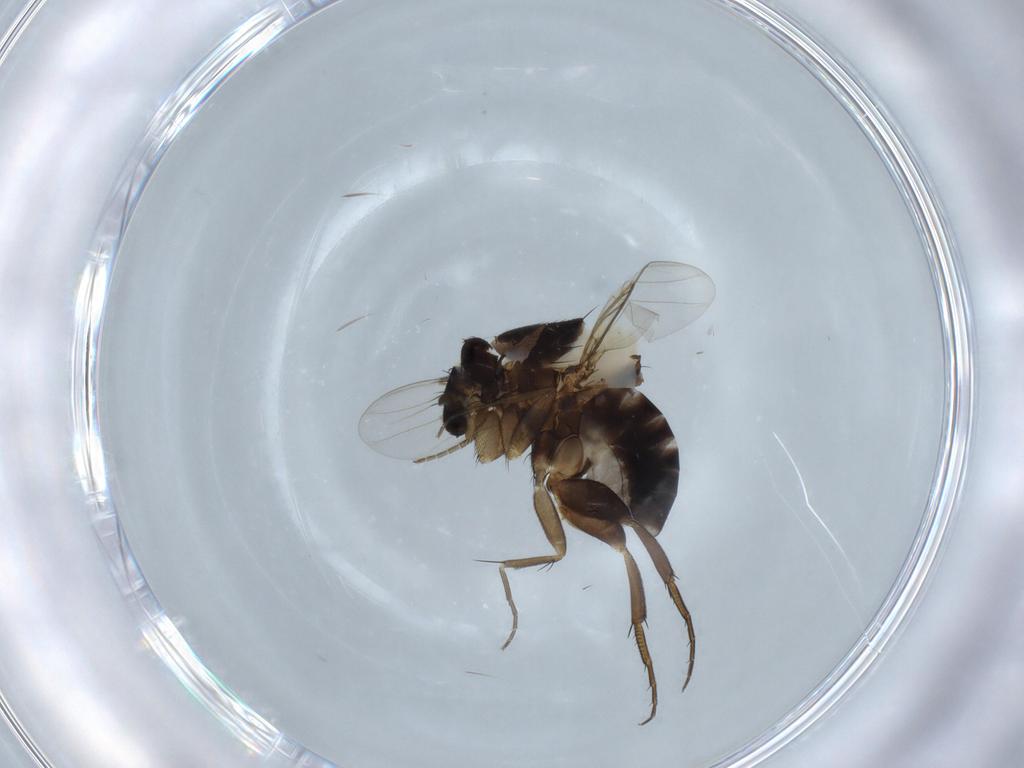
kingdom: Animalia
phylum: Arthropoda
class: Insecta
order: Diptera
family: Phoridae
